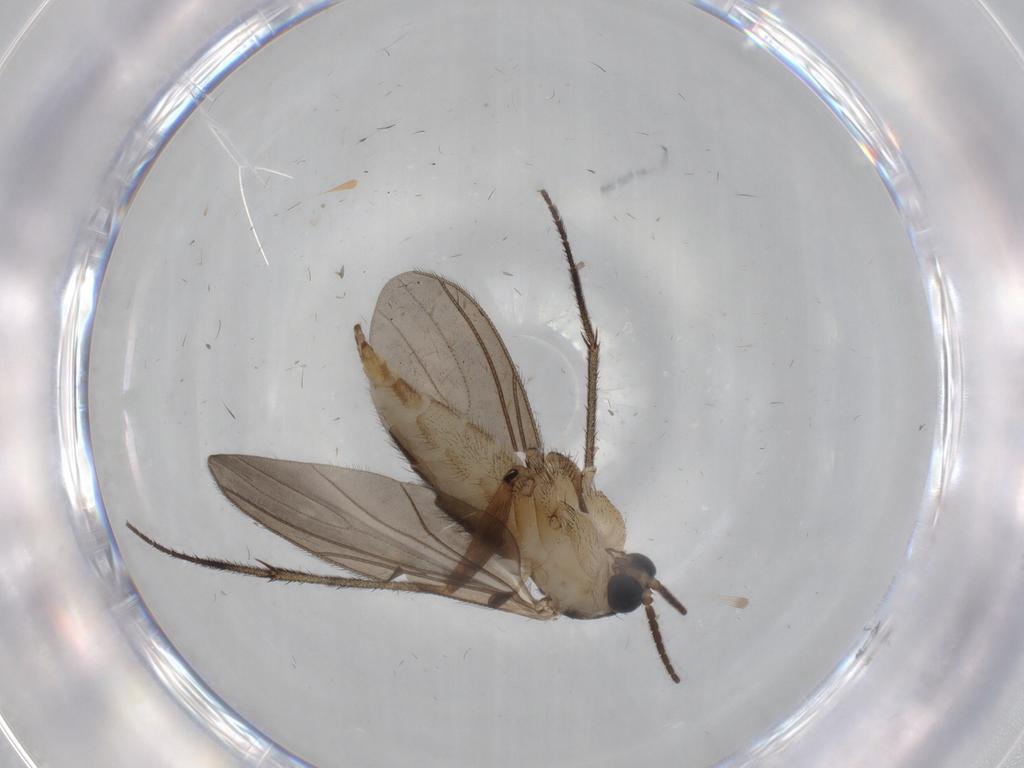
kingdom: Animalia
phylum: Arthropoda
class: Insecta
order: Diptera
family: Sciaridae
